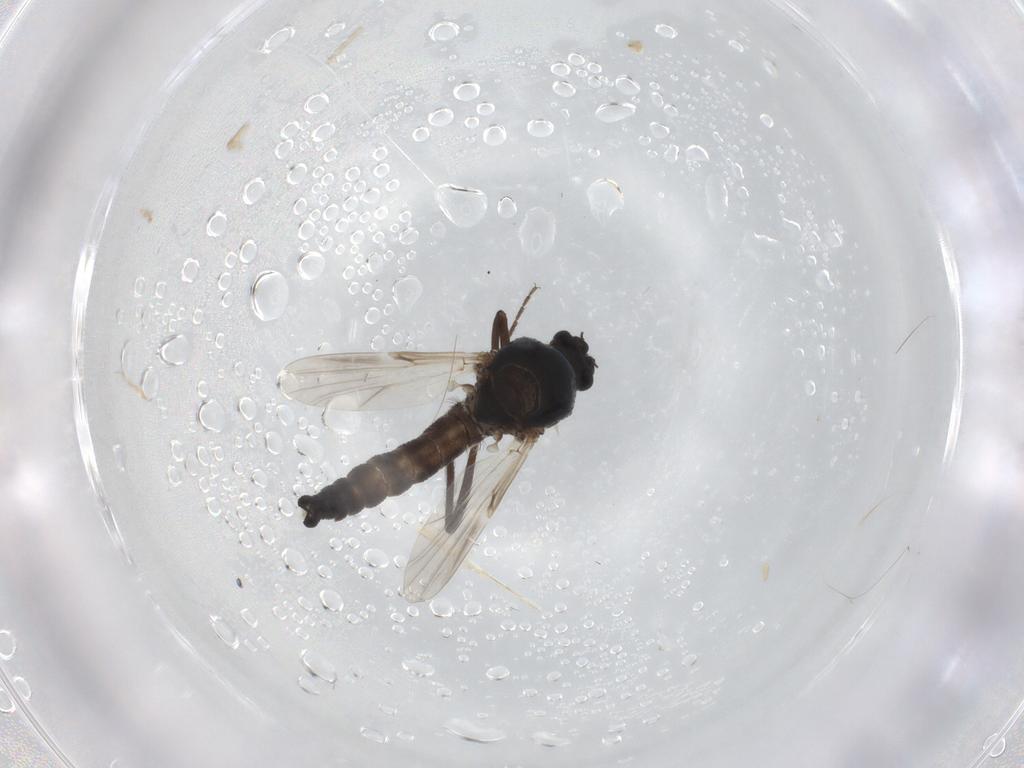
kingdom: Animalia
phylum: Arthropoda
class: Insecta
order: Diptera
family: Ceratopogonidae
